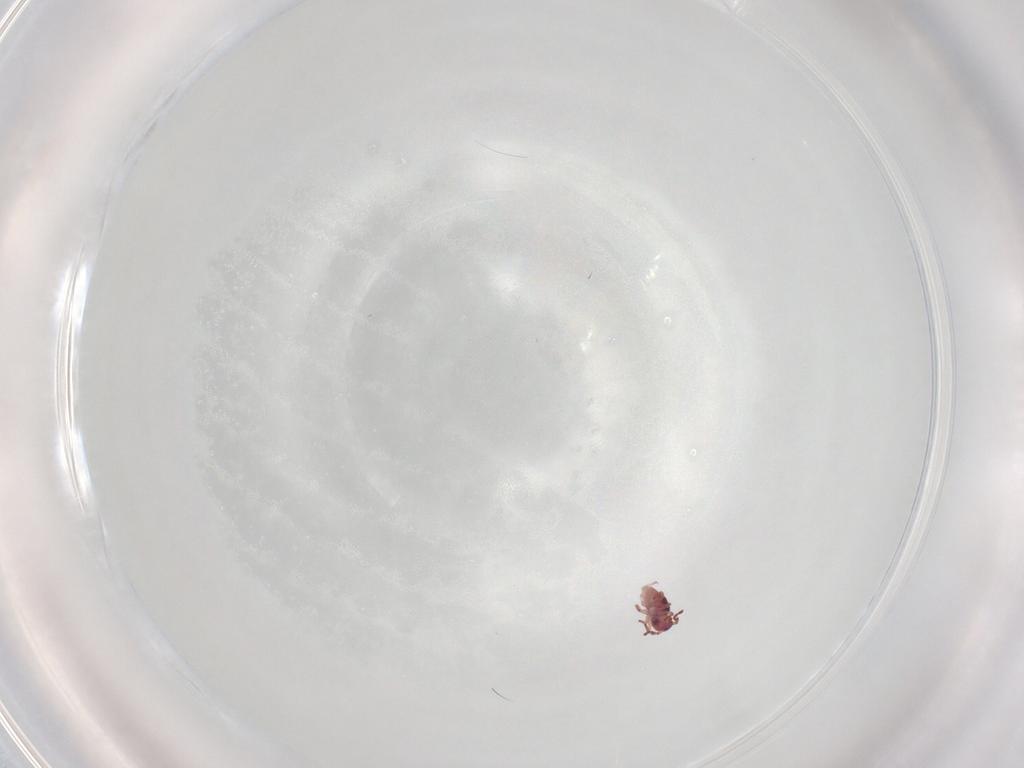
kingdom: Animalia
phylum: Arthropoda
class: Collembola
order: Symphypleona
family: Sminthurididae
